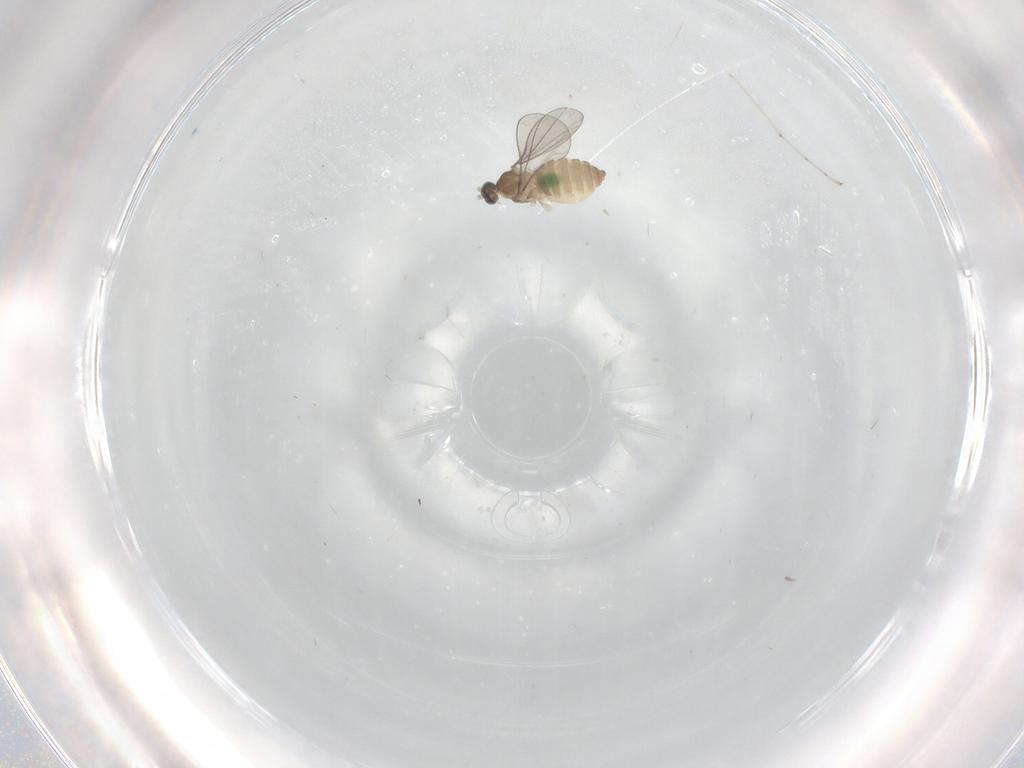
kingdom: Animalia
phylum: Arthropoda
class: Insecta
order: Diptera
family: Cecidomyiidae
